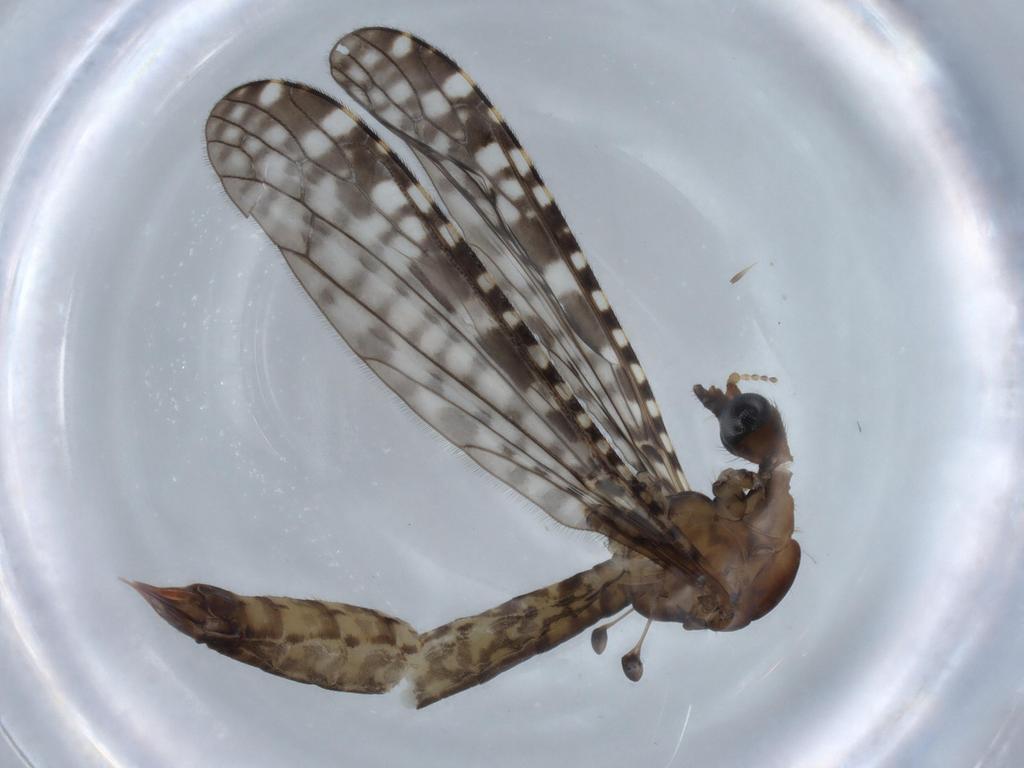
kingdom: Animalia
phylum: Arthropoda
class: Insecta
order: Diptera
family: Limoniidae
